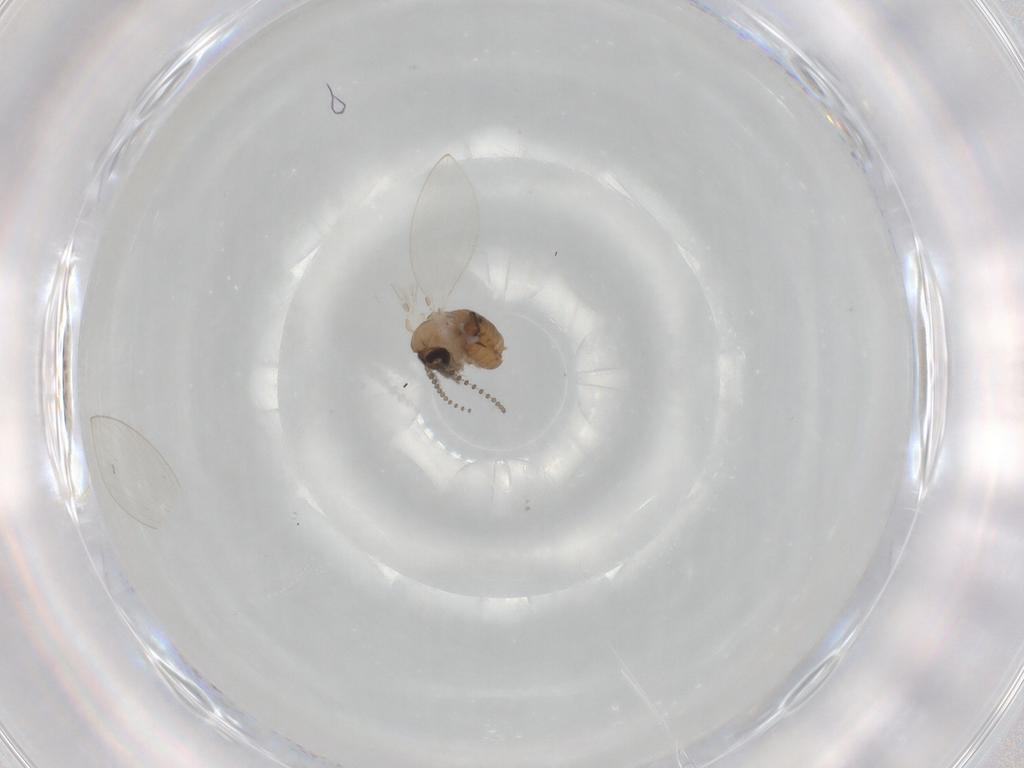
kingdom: Animalia
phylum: Arthropoda
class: Insecta
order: Diptera
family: Psychodidae
